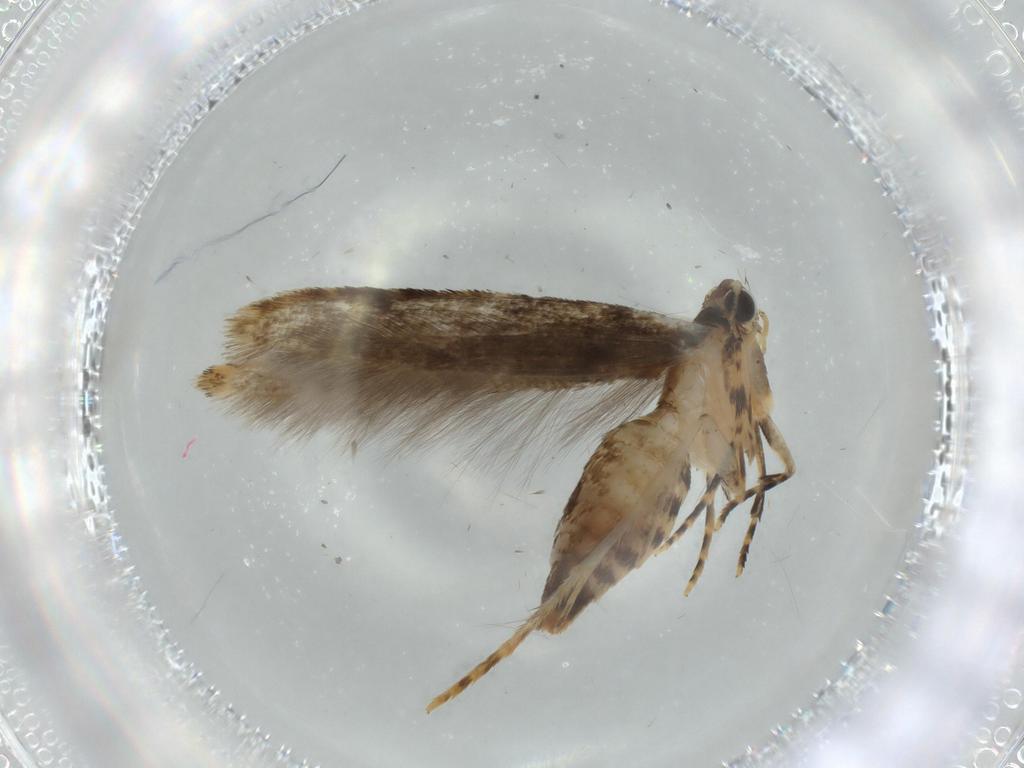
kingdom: Animalia
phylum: Arthropoda
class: Insecta
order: Lepidoptera
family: Tineidae
